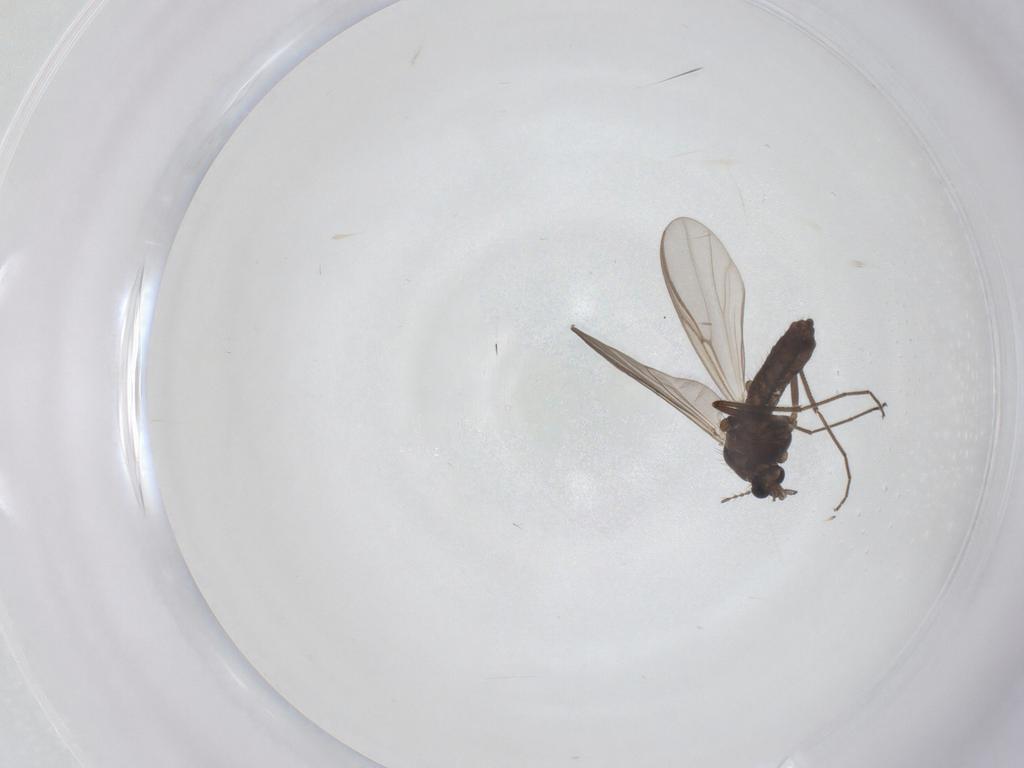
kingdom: Animalia
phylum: Arthropoda
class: Insecta
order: Diptera
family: Chironomidae
